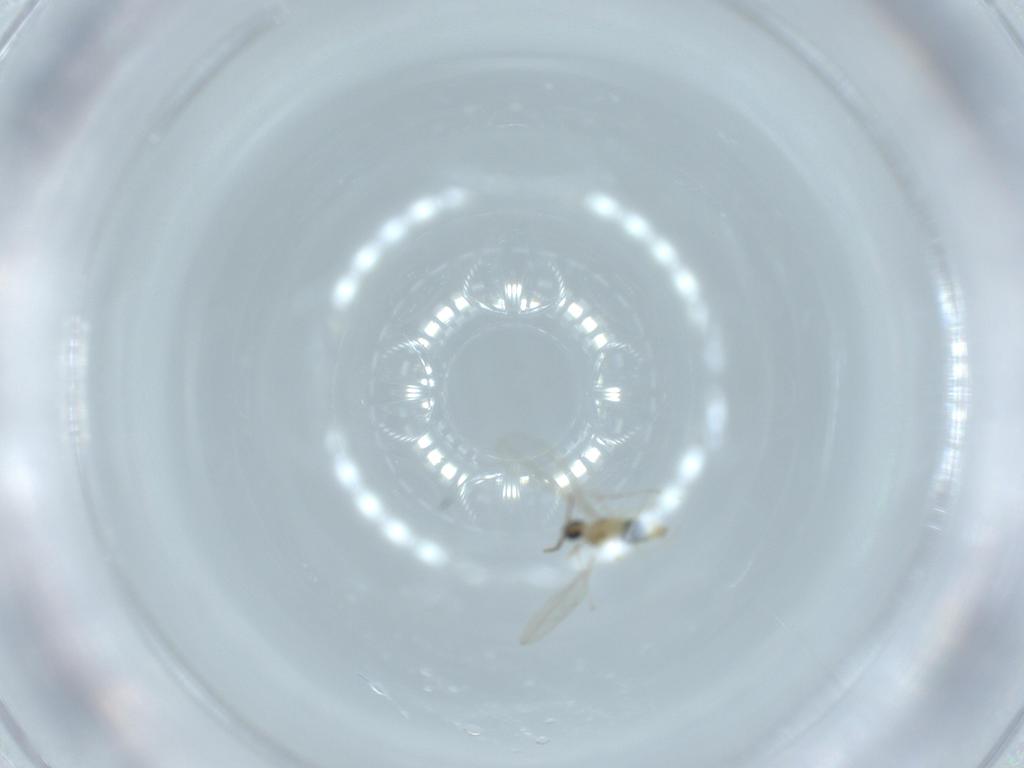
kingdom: Animalia
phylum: Arthropoda
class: Insecta
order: Diptera
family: Cecidomyiidae
